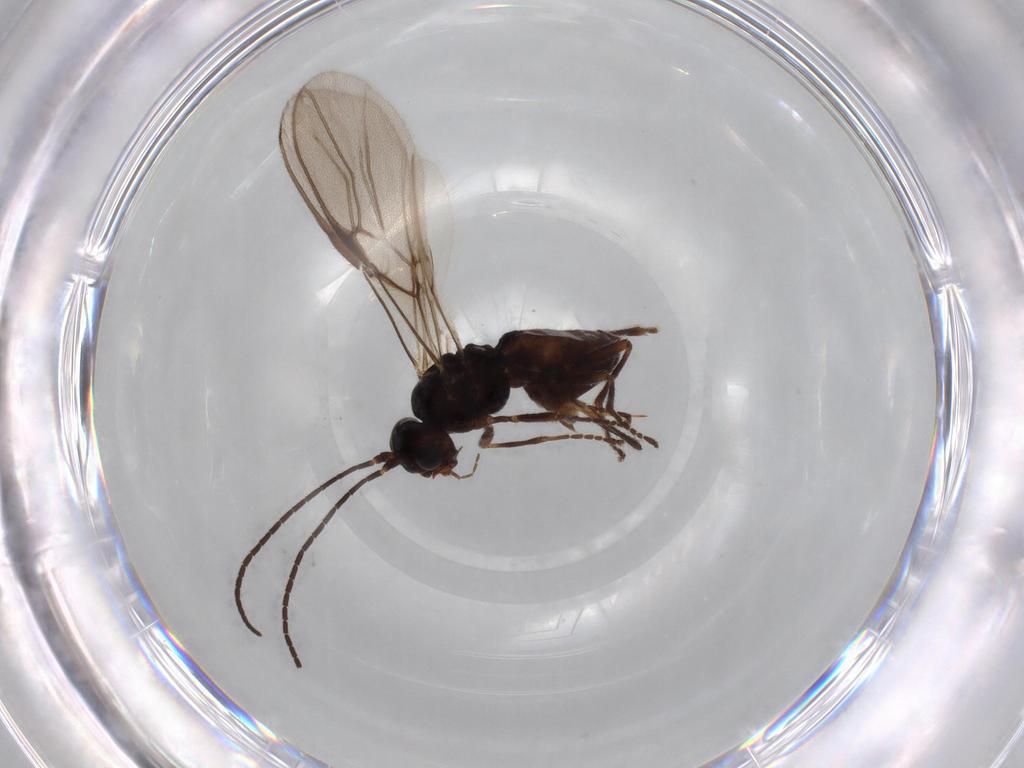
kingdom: Animalia
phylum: Arthropoda
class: Insecta
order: Hymenoptera
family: Braconidae
